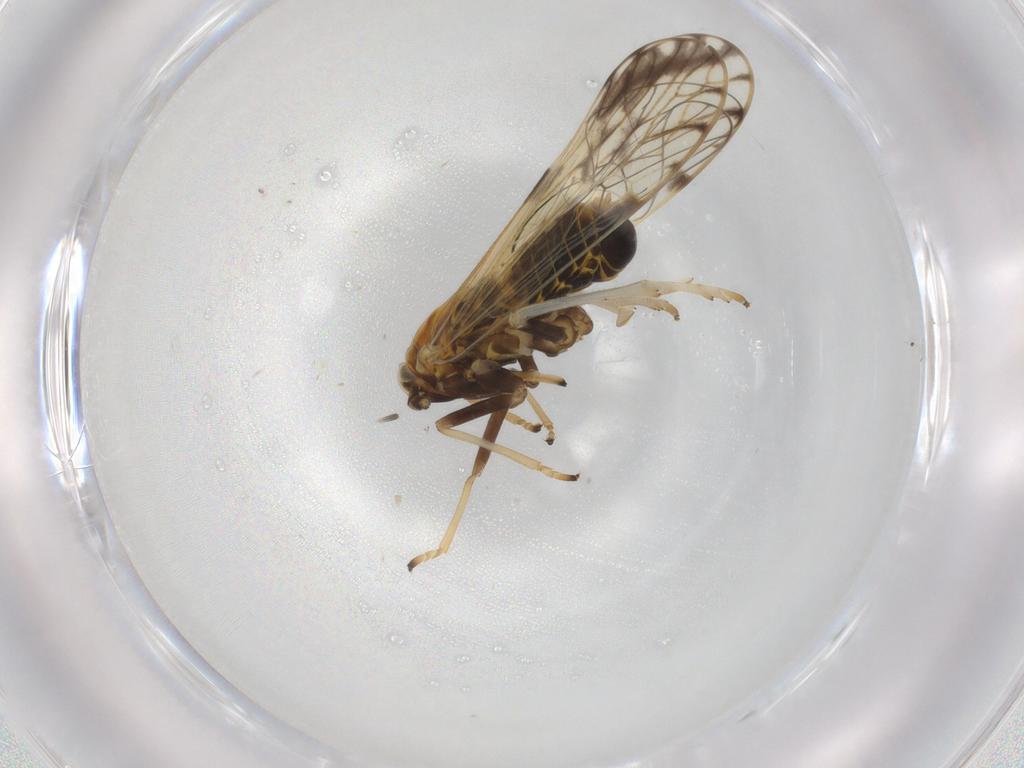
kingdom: Animalia
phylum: Arthropoda
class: Insecta
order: Hemiptera
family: Delphacidae
